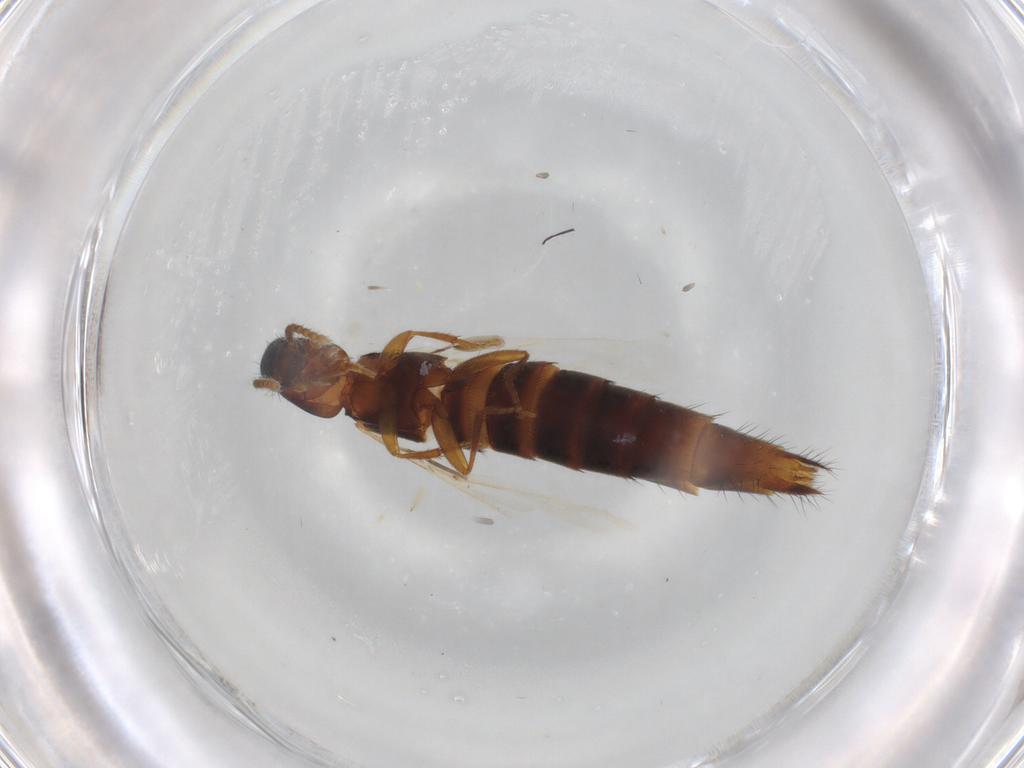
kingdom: Animalia
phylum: Arthropoda
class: Insecta
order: Coleoptera
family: Staphylinidae
